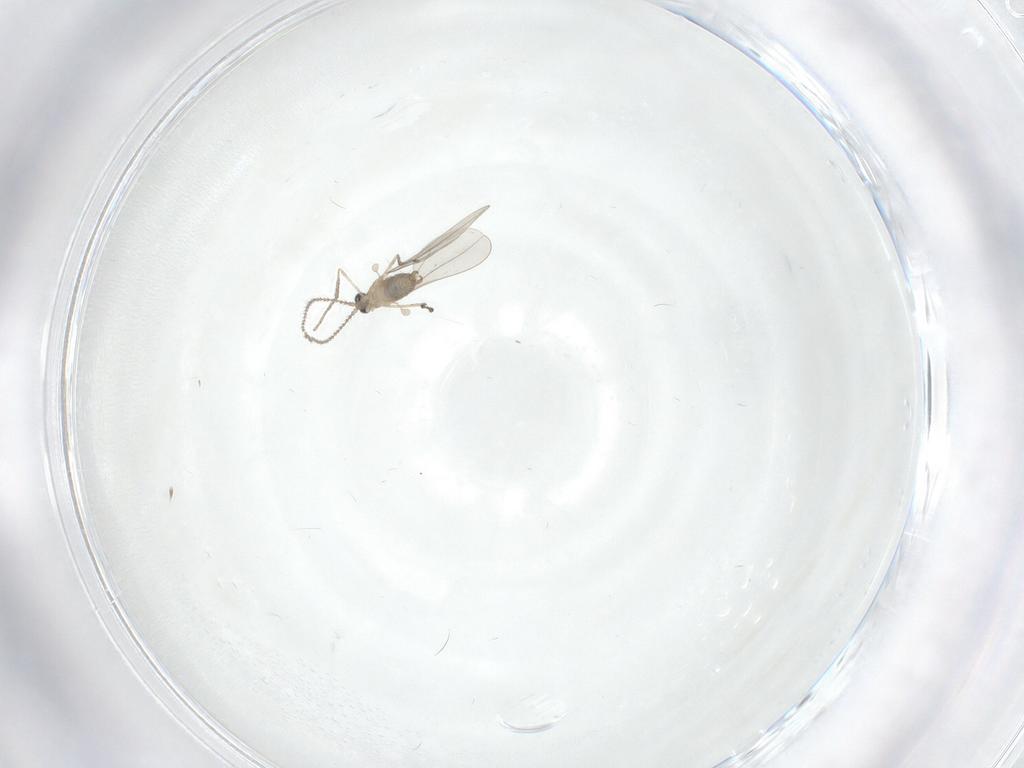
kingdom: Animalia
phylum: Arthropoda
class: Insecta
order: Diptera
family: Cecidomyiidae
